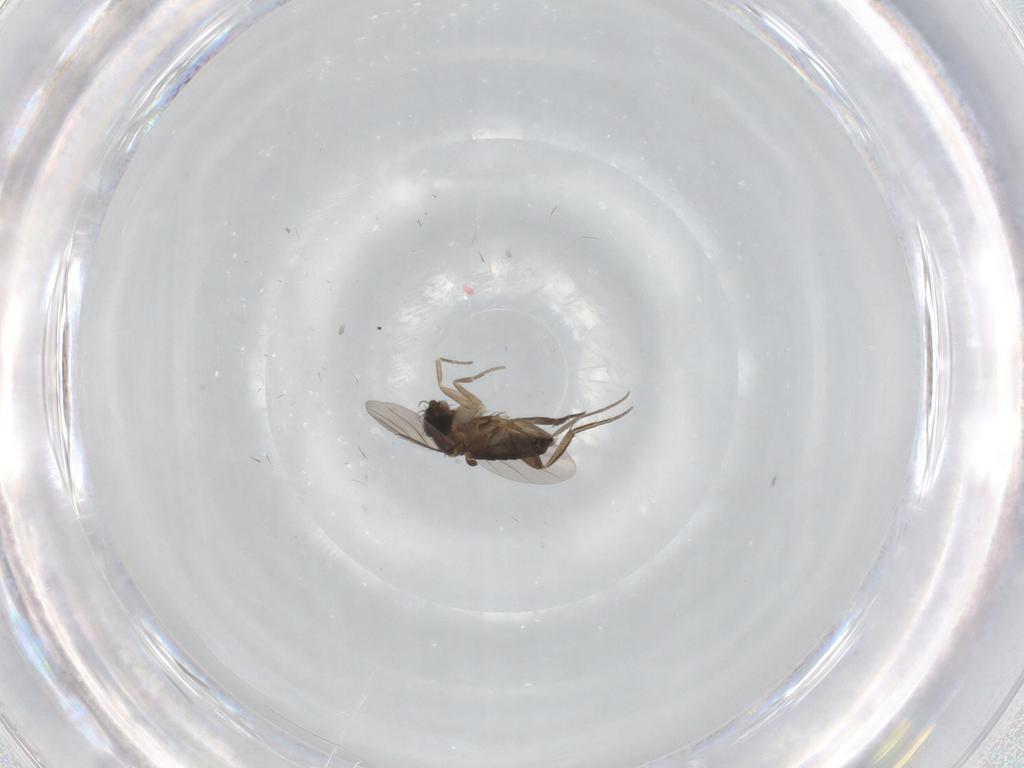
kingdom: Animalia
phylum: Arthropoda
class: Insecta
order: Diptera
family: Phoridae
